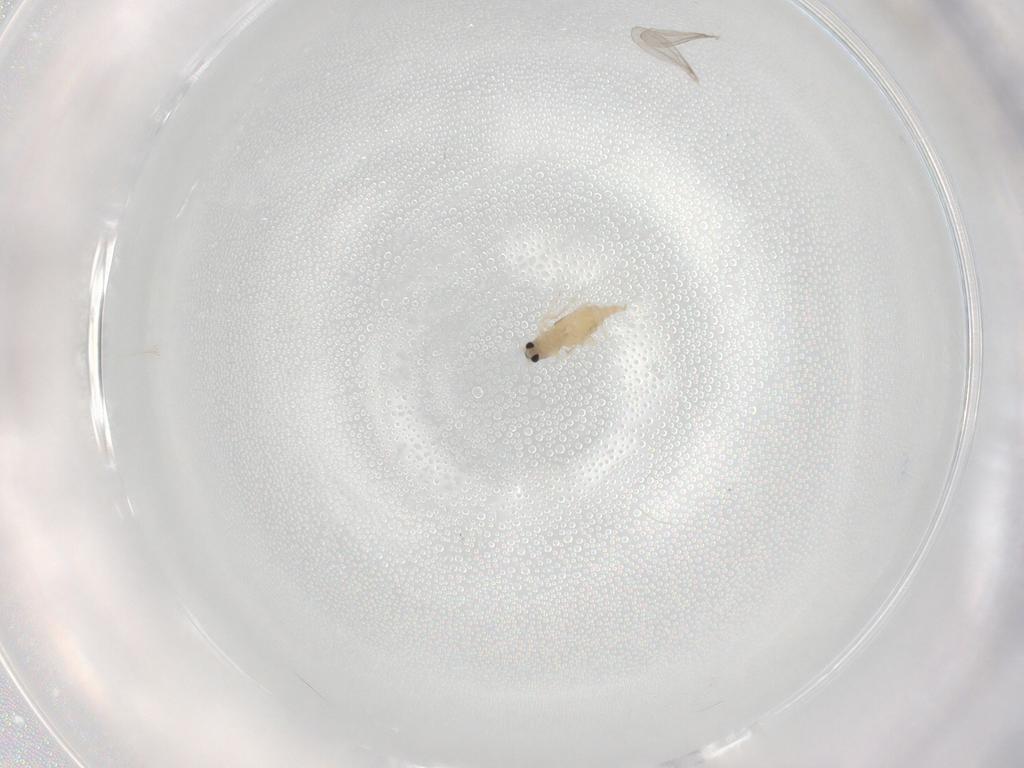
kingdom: Animalia
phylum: Arthropoda
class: Insecta
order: Diptera
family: Cecidomyiidae
